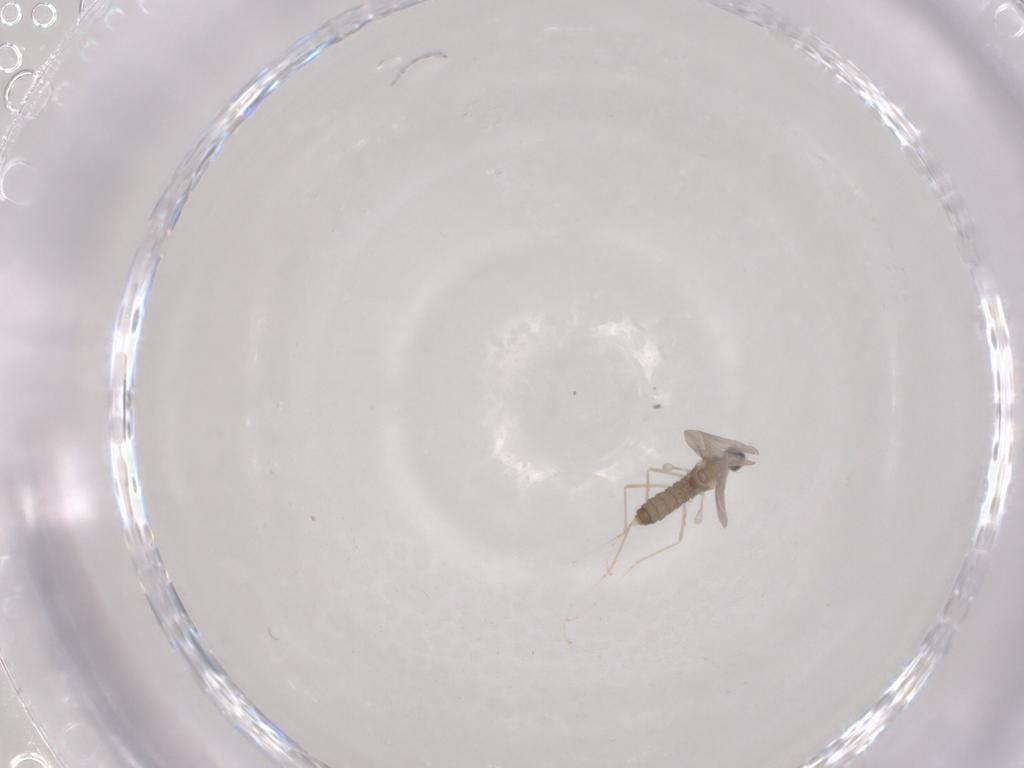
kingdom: Animalia
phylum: Arthropoda
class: Insecta
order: Diptera
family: Cecidomyiidae
